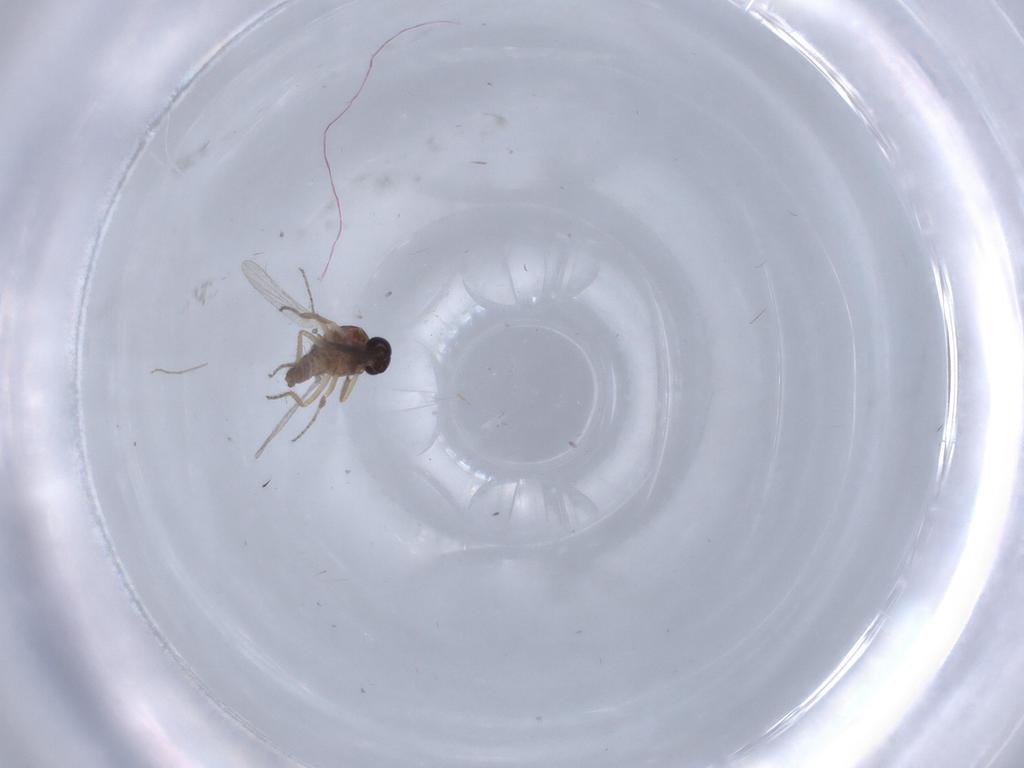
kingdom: Animalia
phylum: Arthropoda
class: Insecta
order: Diptera
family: Ceratopogonidae
